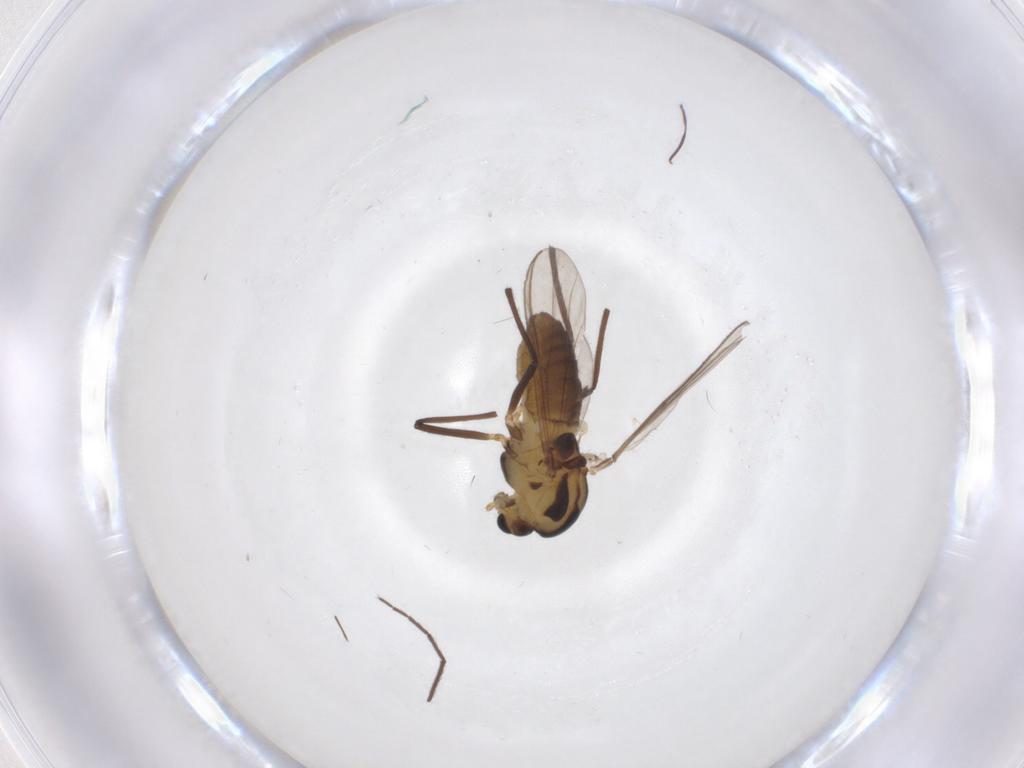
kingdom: Animalia
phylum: Arthropoda
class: Insecta
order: Diptera
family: Chironomidae
